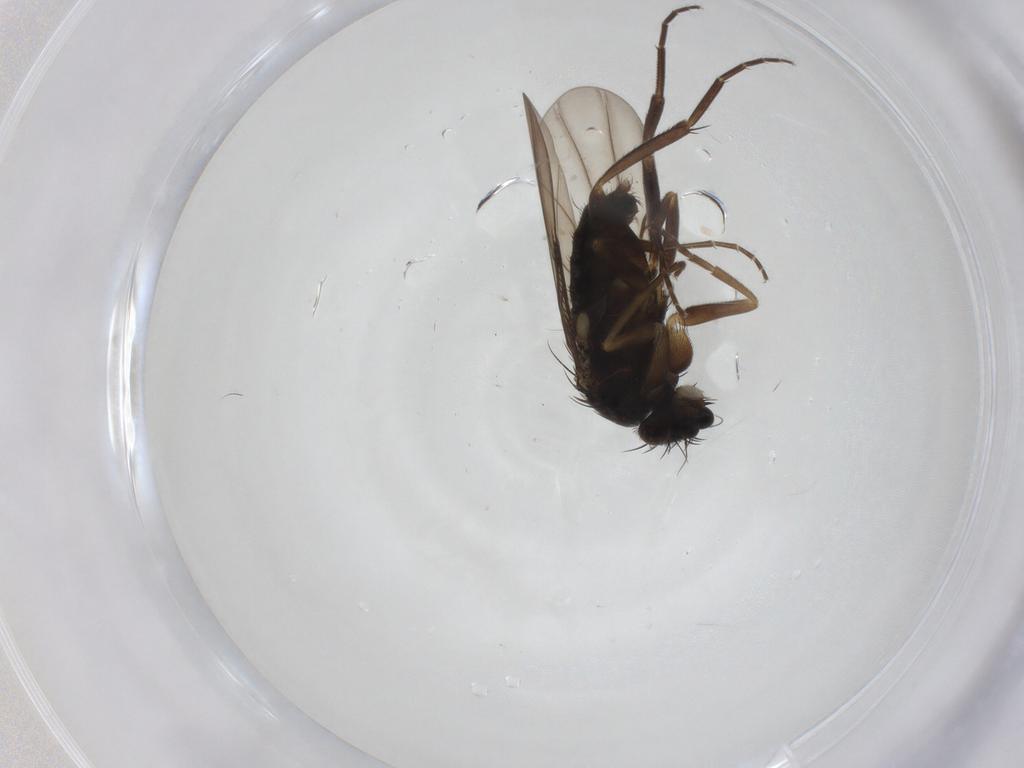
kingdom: Animalia
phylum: Arthropoda
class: Insecta
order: Diptera
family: Phoridae
